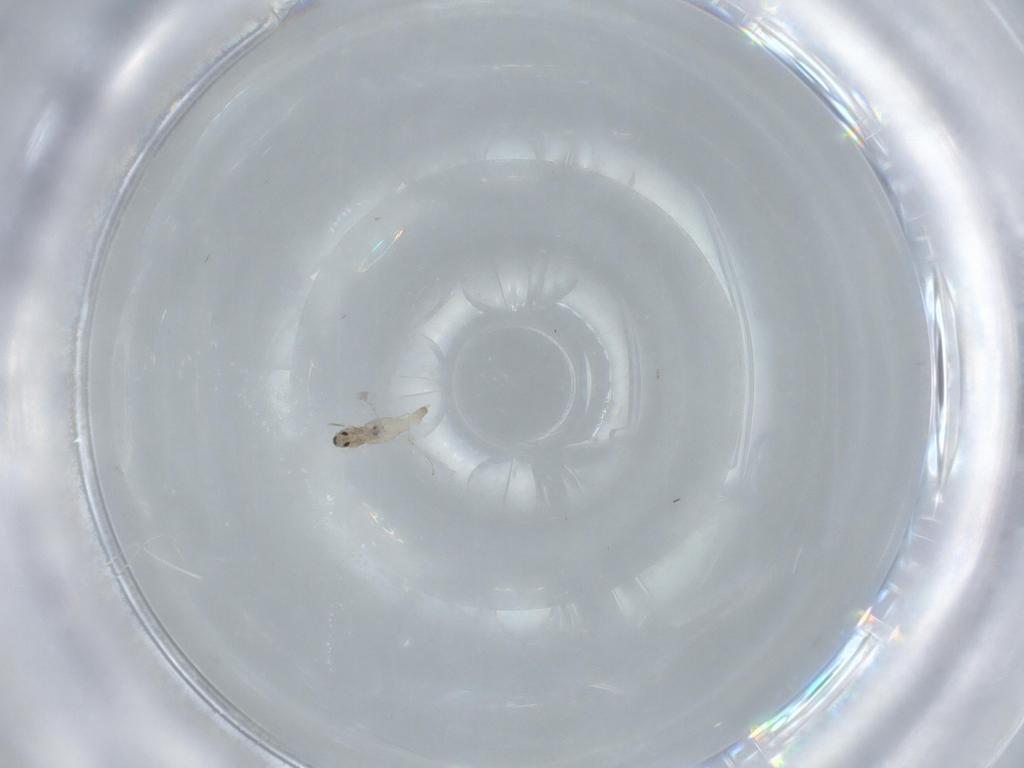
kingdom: Animalia
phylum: Arthropoda
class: Insecta
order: Diptera
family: Cecidomyiidae
